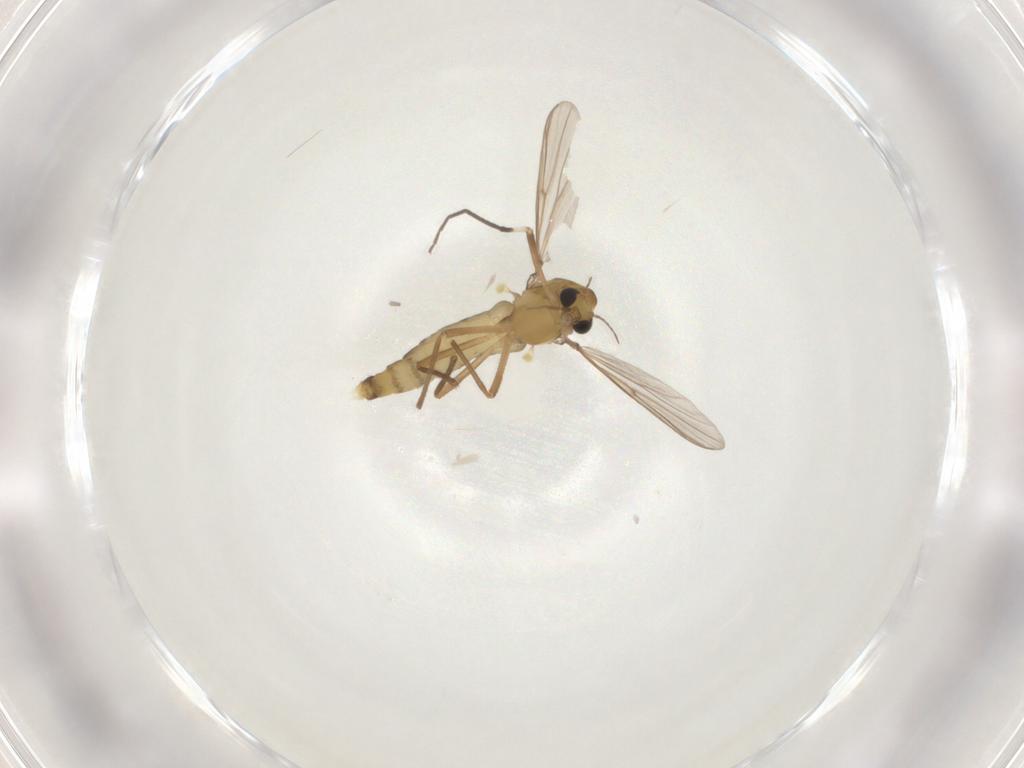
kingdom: Animalia
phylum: Arthropoda
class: Insecta
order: Diptera
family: Chironomidae
